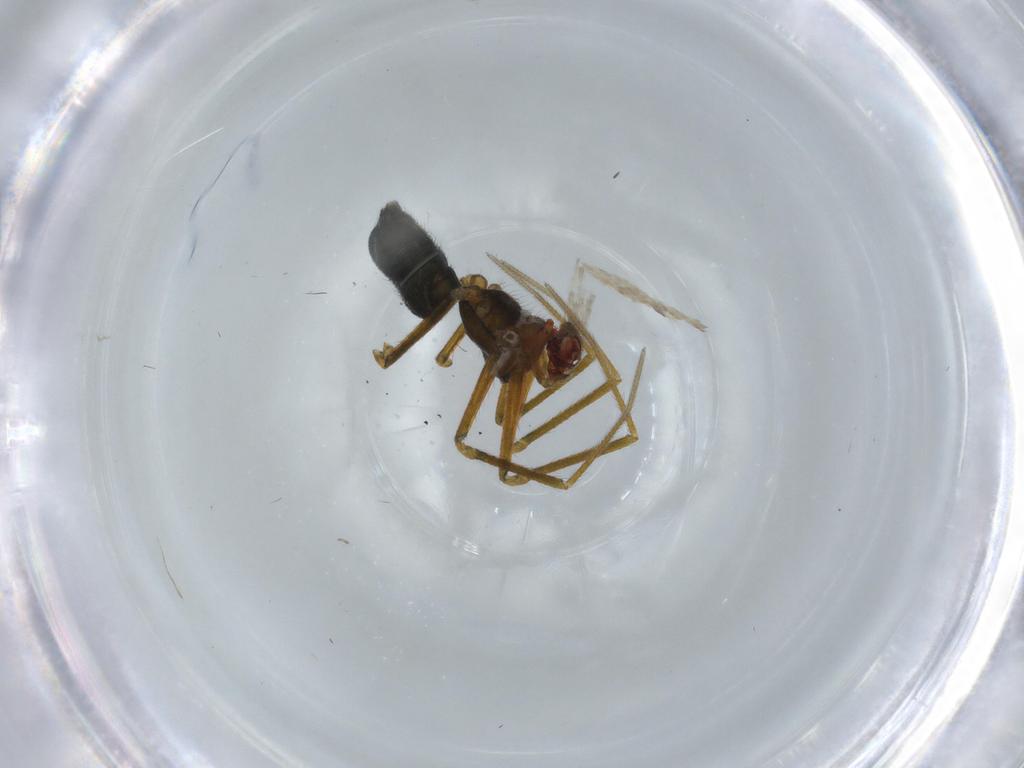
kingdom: Animalia
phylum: Arthropoda
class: Arachnida
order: Araneae
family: Linyphiidae
